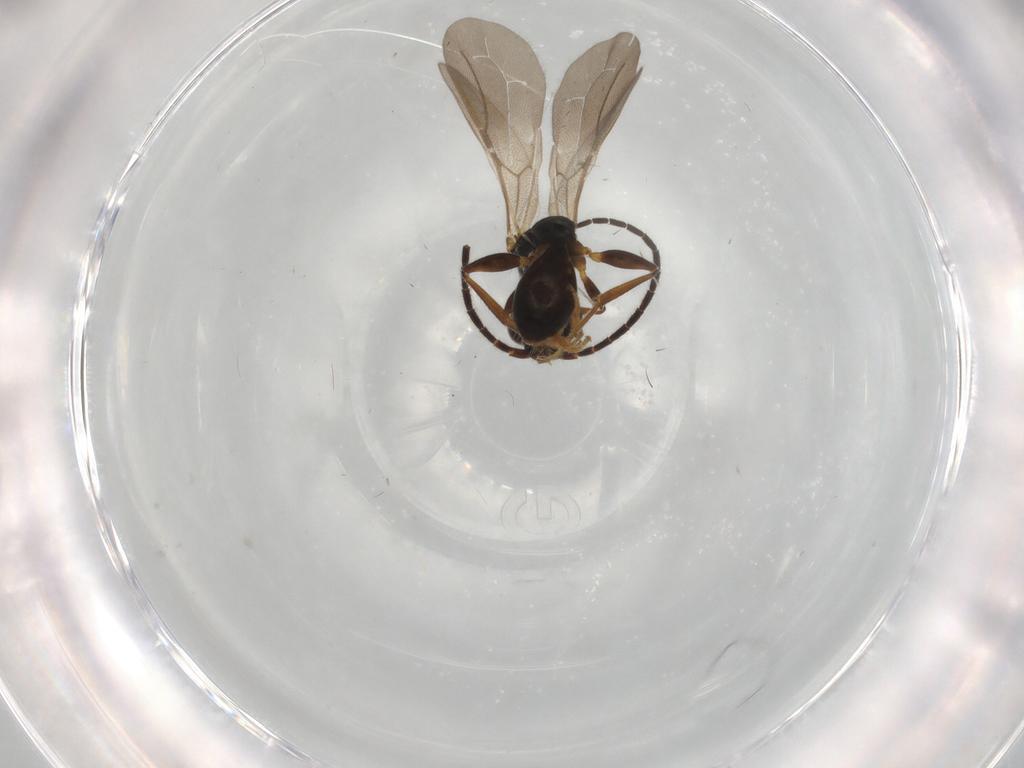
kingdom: Animalia
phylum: Arthropoda
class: Insecta
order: Hymenoptera
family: Bethylidae
